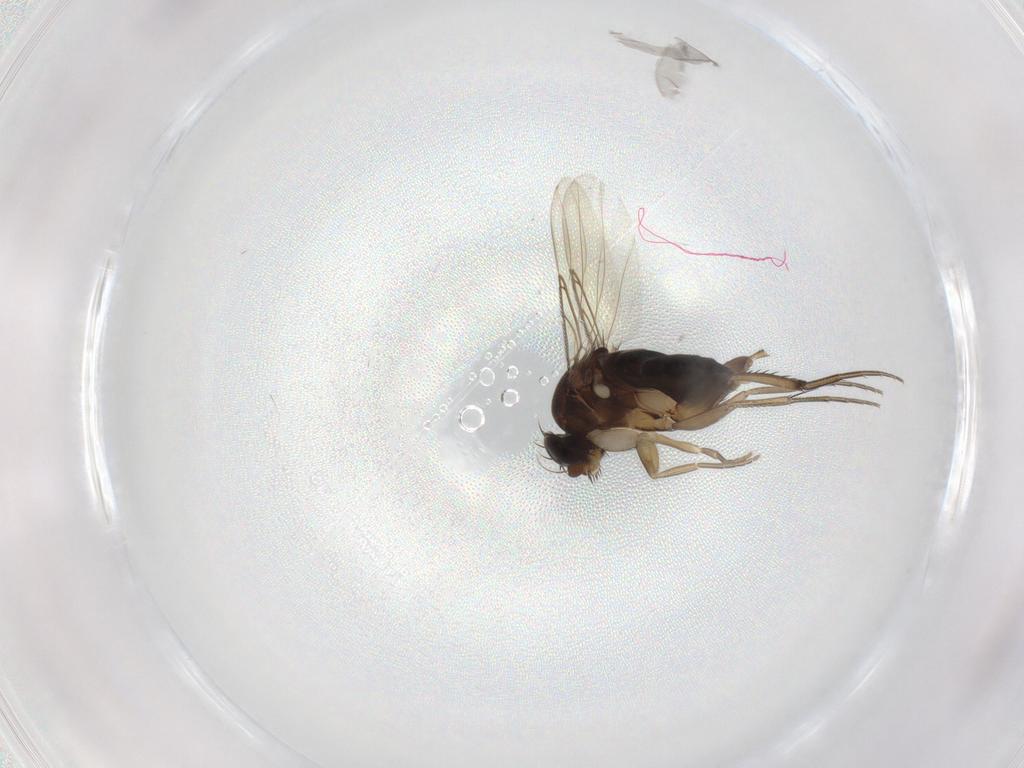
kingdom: Animalia
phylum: Arthropoda
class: Insecta
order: Diptera
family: Phoridae
